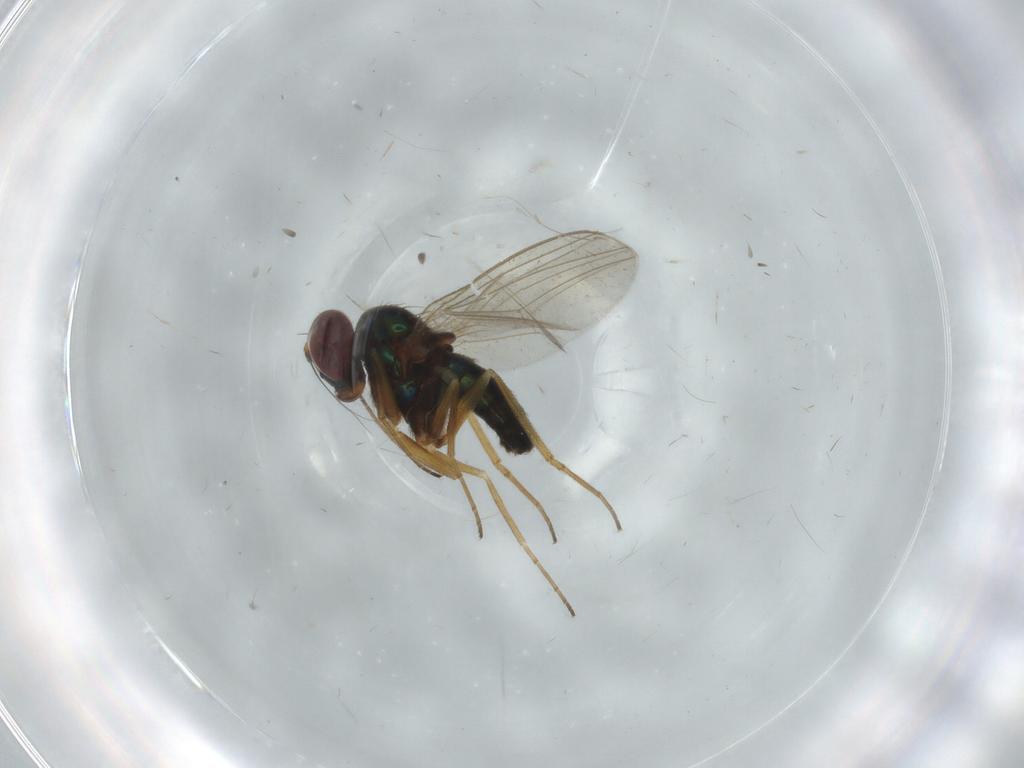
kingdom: Animalia
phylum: Arthropoda
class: Insecta
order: Diptera
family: Dolichopodidae
